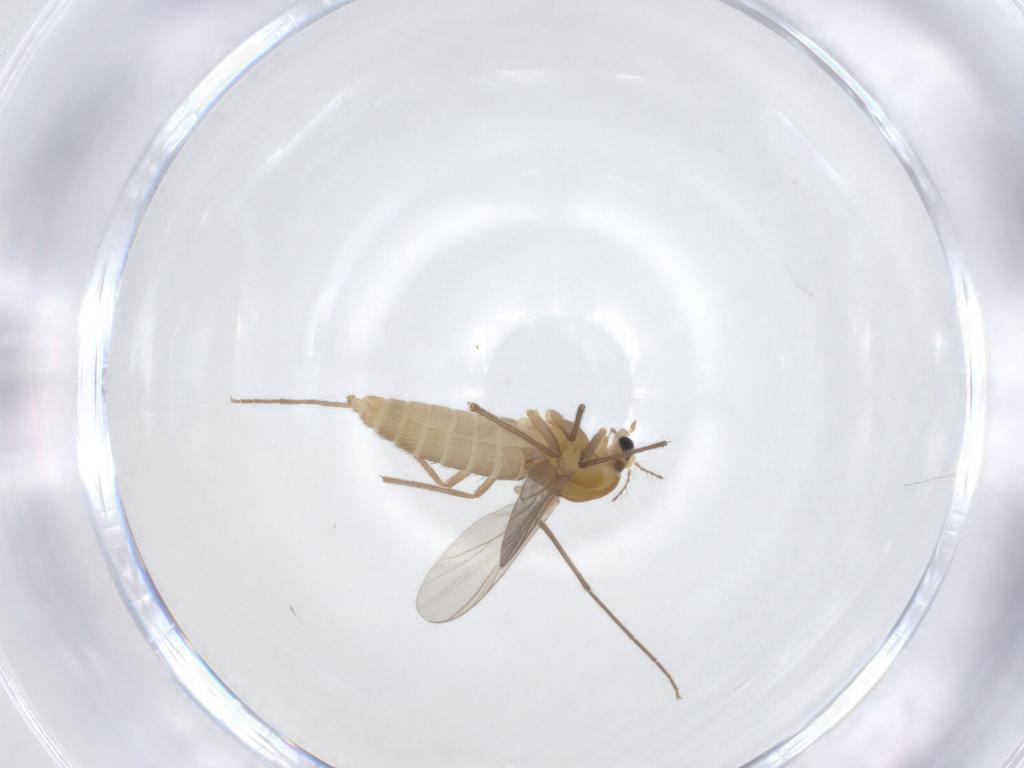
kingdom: Animalia
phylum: Arthropoda
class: Insecta
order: Diptera
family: Chironomidae
